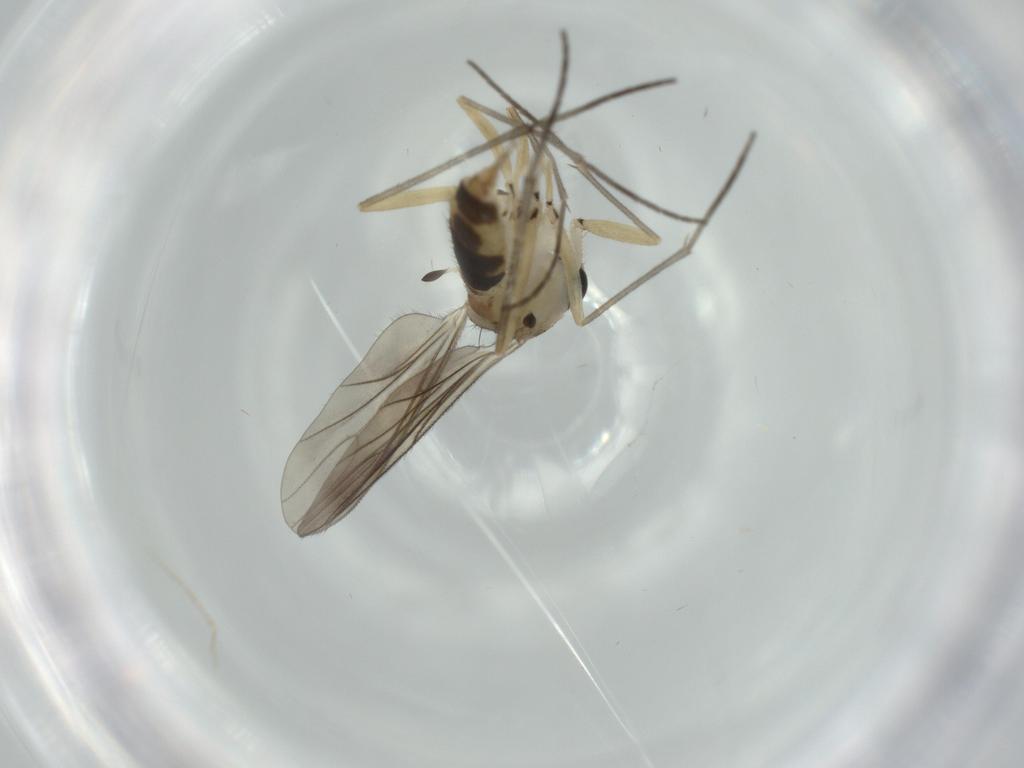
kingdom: Animalia
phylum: Arthropoda
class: Insecta
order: Diptera
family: Sciaridae
